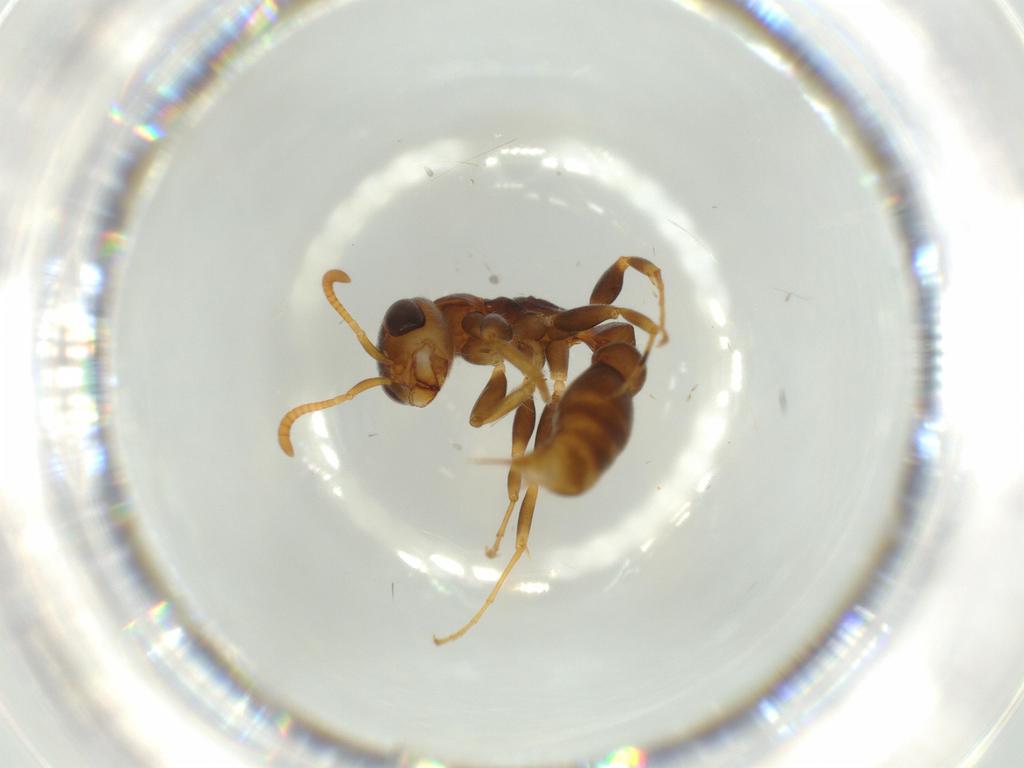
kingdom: Animalia
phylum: Arthropoda
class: Insecta
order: Hymenoptera
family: Formicidae
